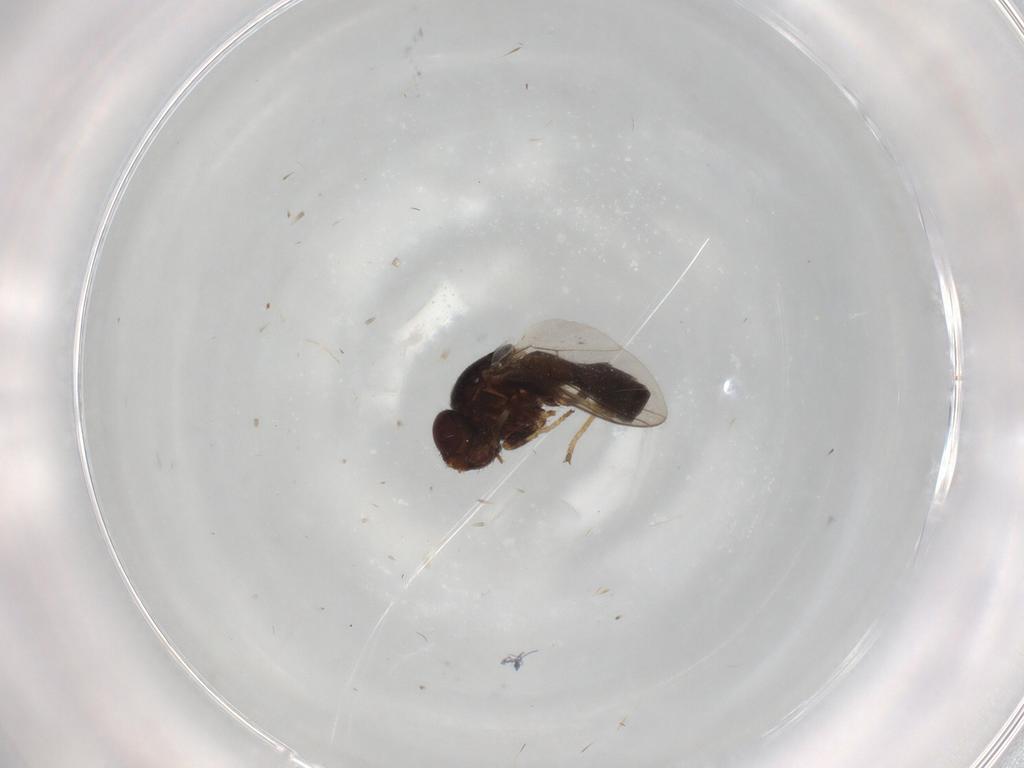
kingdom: Animalia
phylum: Arthropoda
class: Insecta
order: Diptera
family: Chloropidae
